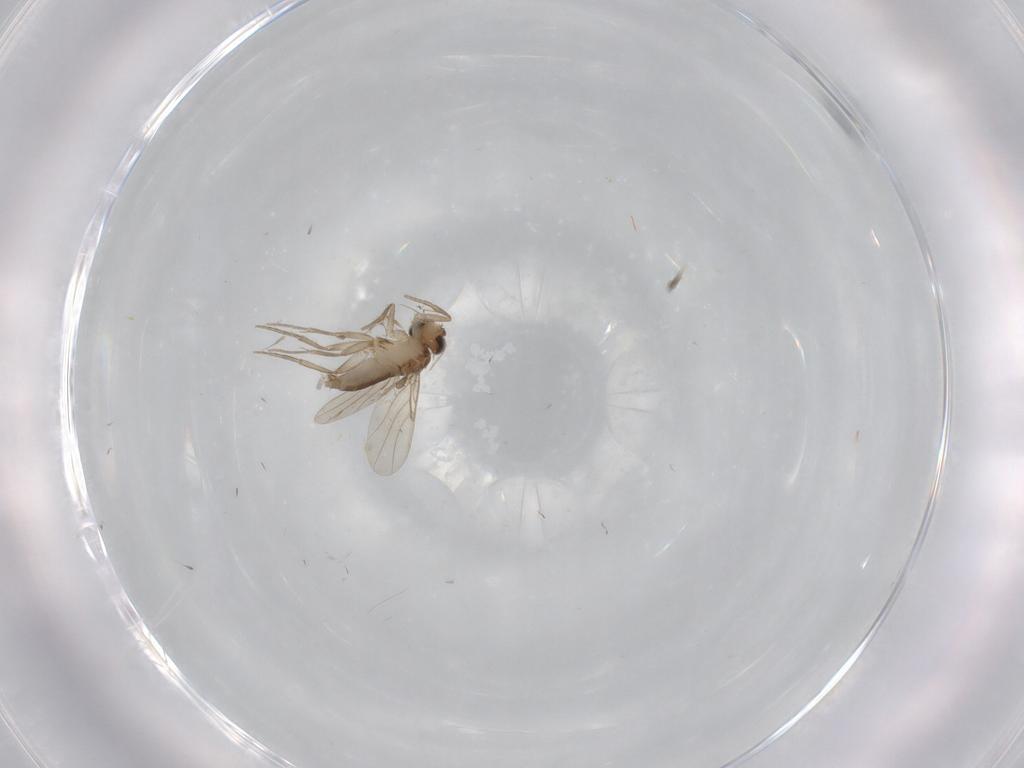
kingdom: Animalia
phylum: Arthropoda
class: Insecta
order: Diptera
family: Phoridae
